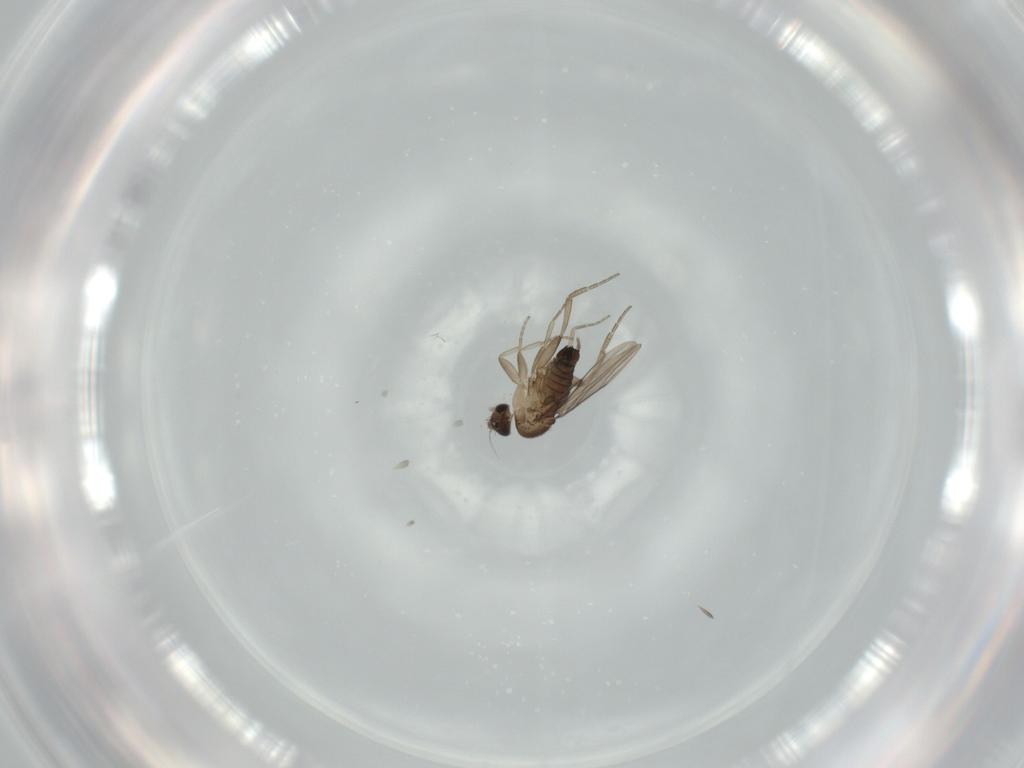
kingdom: Animalia
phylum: Arthropoda
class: Insecta
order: Diptera
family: Phoridae
